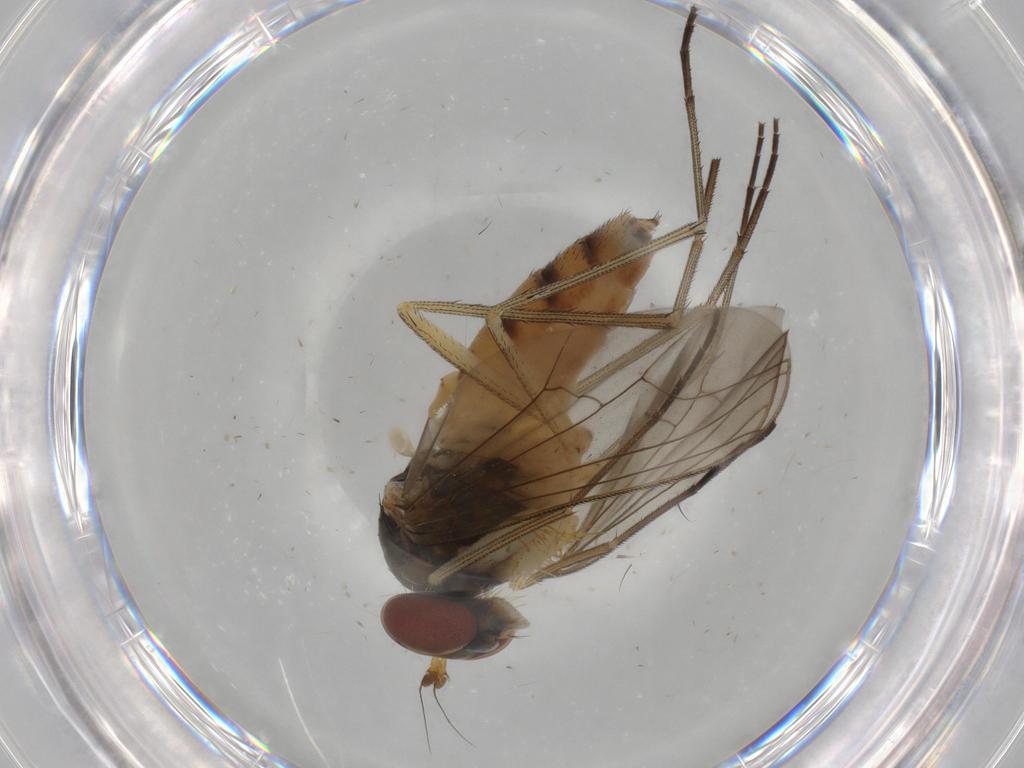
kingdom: Animalia
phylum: Arthropoda
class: Insecta
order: Diptera
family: Dolichopodidae
